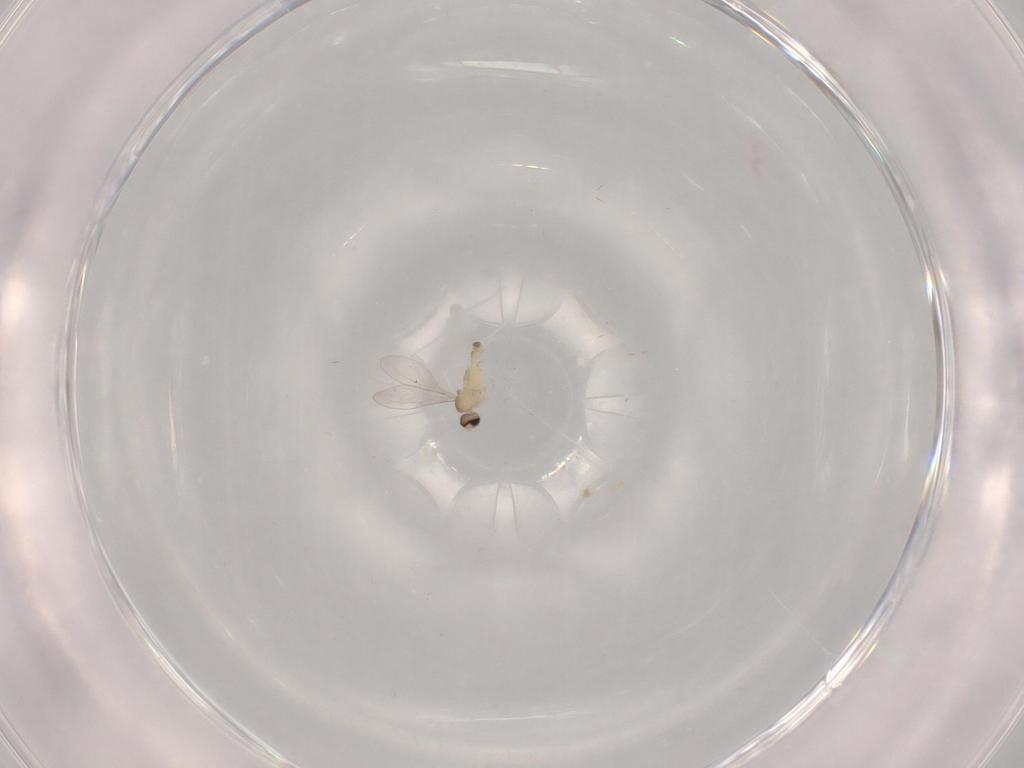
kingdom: Animalia
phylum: Arthropoda
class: Insecta
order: Diptera
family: Cecidomyiidae
